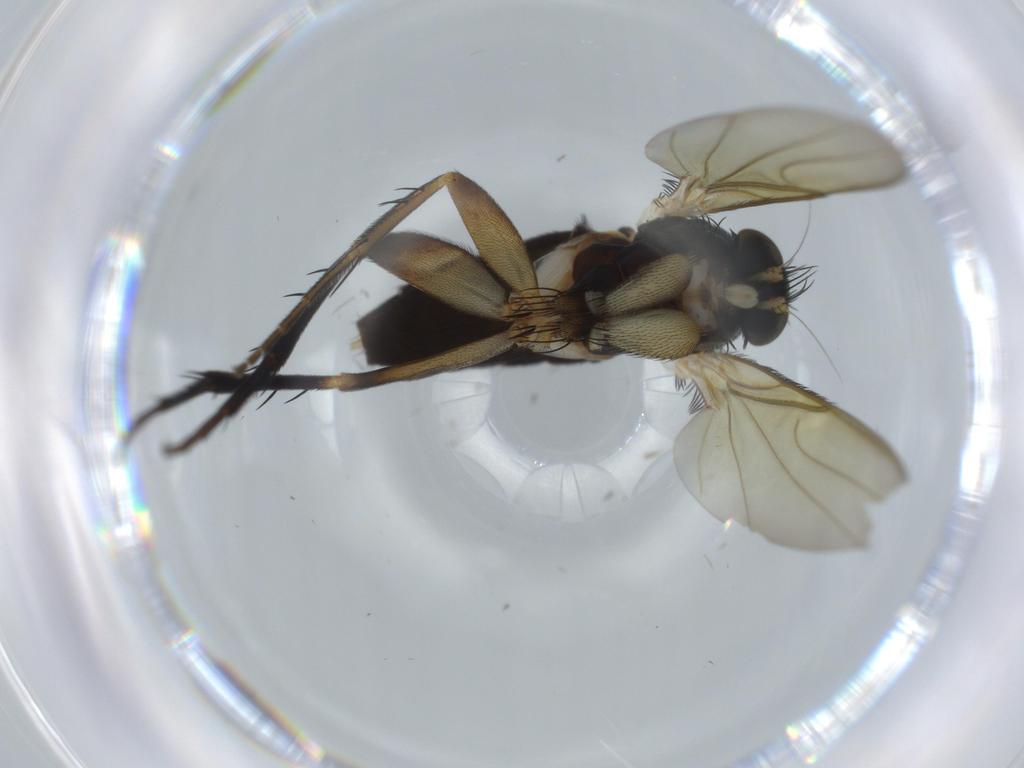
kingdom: Animalia
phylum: Arthropoda
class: Insecta
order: Diptera
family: Phoridae
